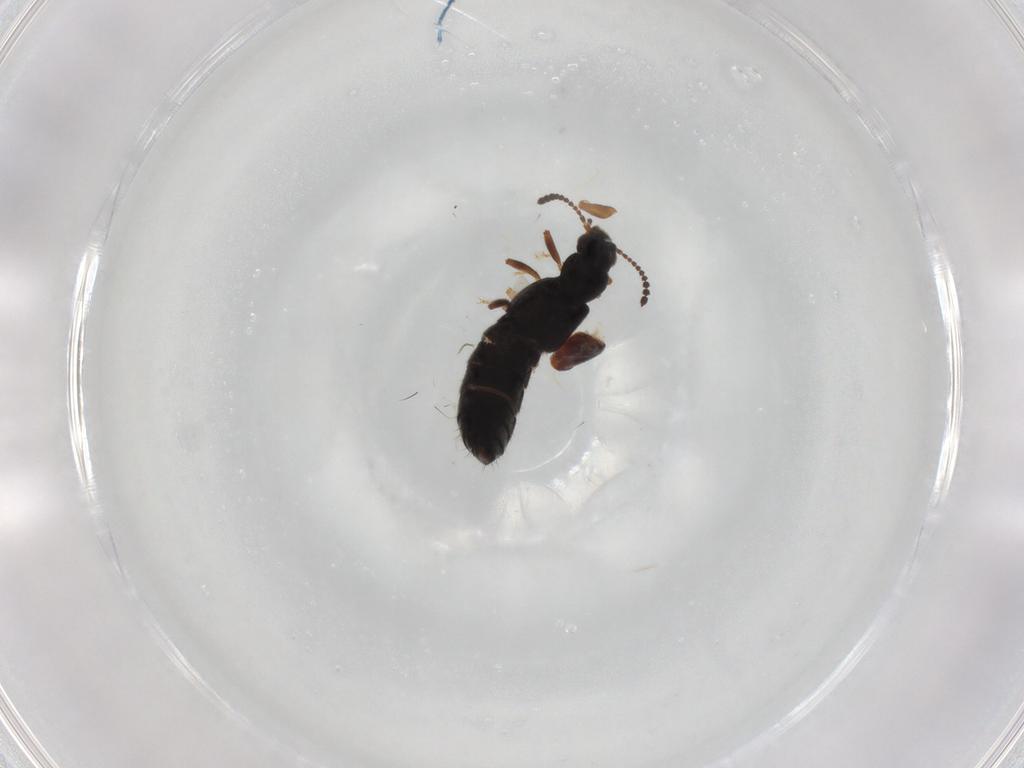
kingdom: Animalia
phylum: Arthropoda
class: Insecta
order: Coleoptera
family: Staphylinidae
